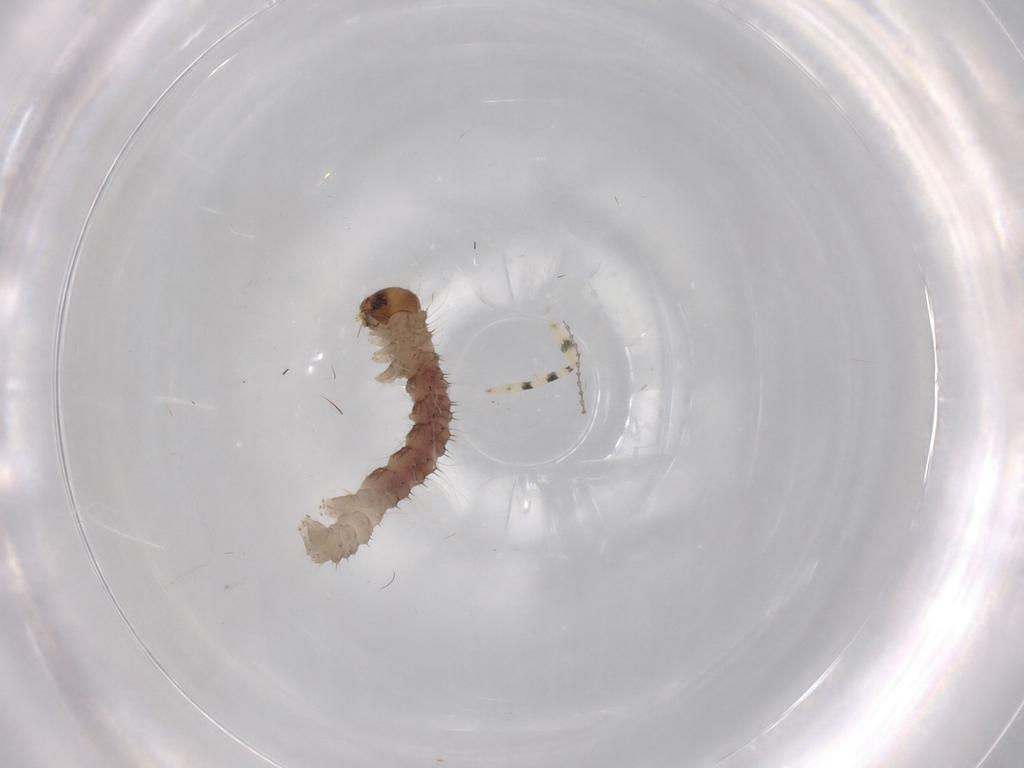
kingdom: Animalia
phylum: Arthropoda
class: Insecta
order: Lepidoptera
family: Geometridae
